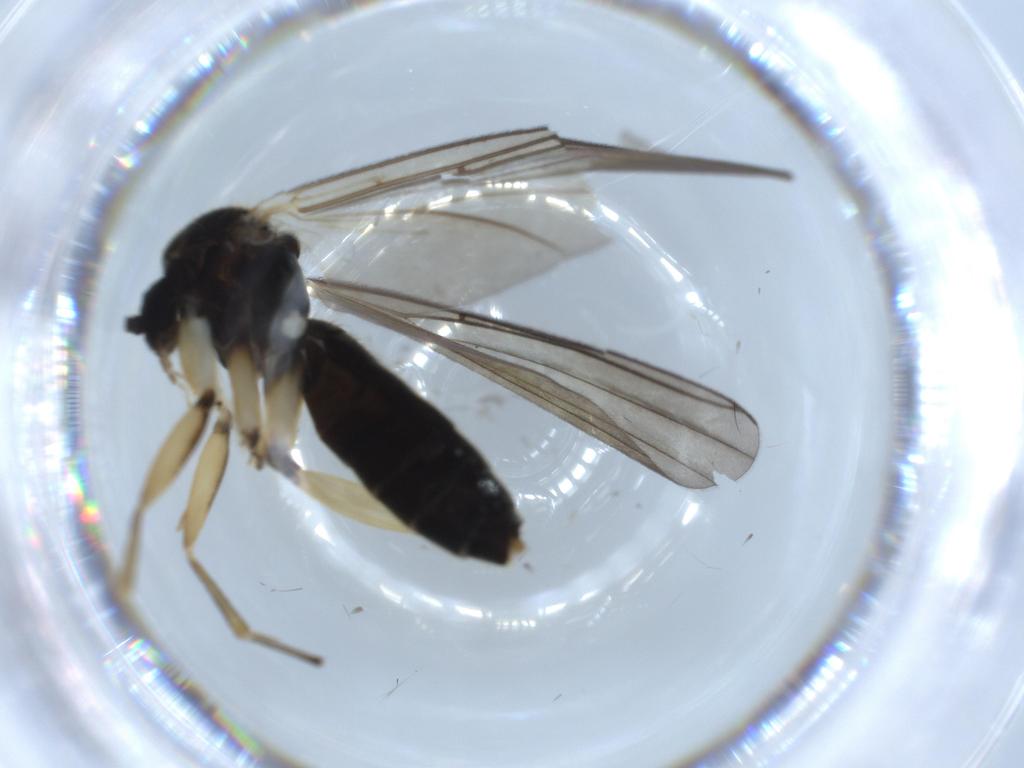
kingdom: Animalia
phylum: Arthropoda
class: Insecta
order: Diptera
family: Mycetophilidae
